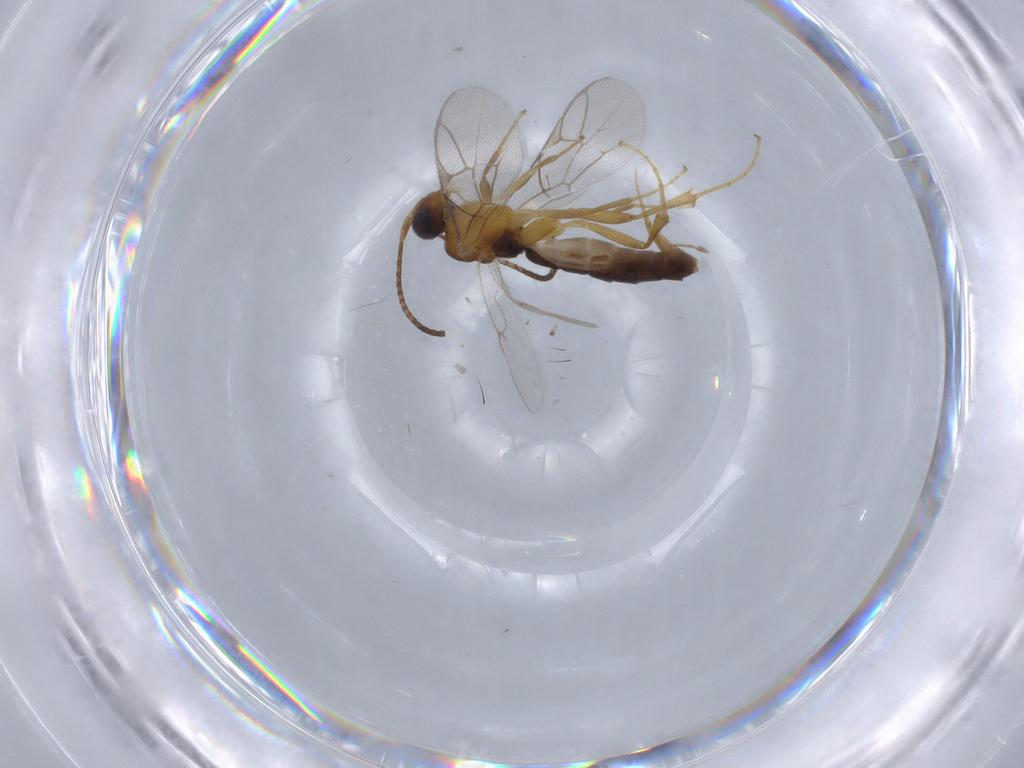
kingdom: Animalia
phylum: Arthropoda
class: Insecta
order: Hymenoptera
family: Ichneumonidae
